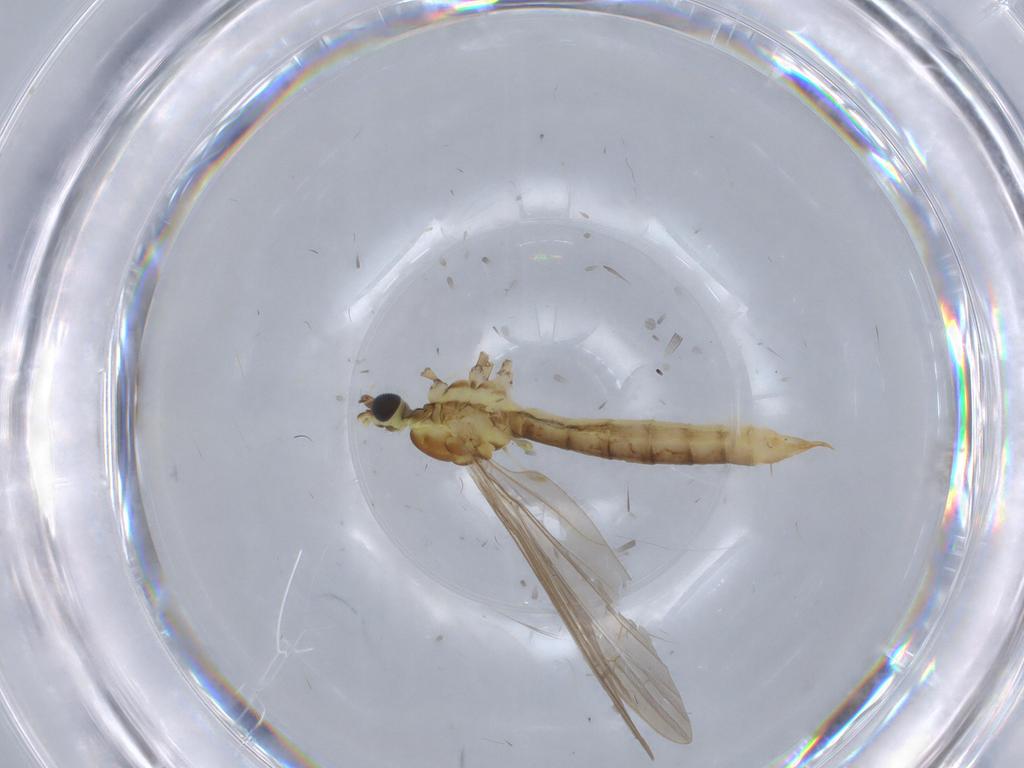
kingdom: Animalia
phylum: Arthropoda
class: Insecta
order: Diptera
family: Limoniidae
